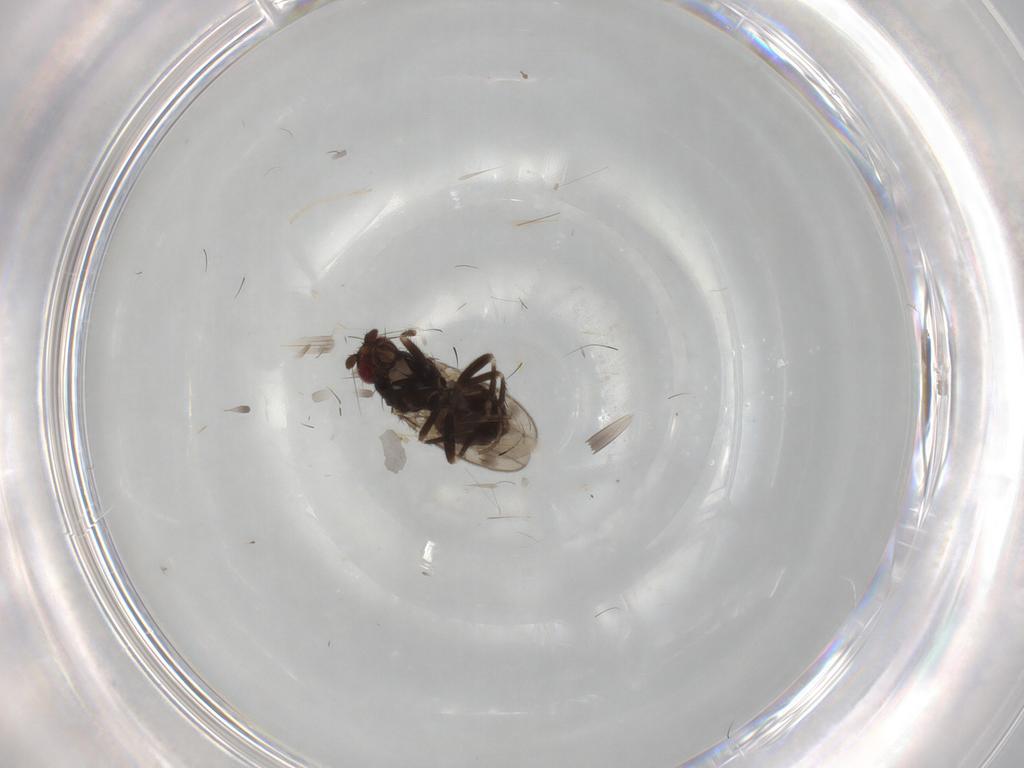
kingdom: Animalia
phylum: Arthropoda
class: Insecta
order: Diptera
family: Sphaeroceridae
